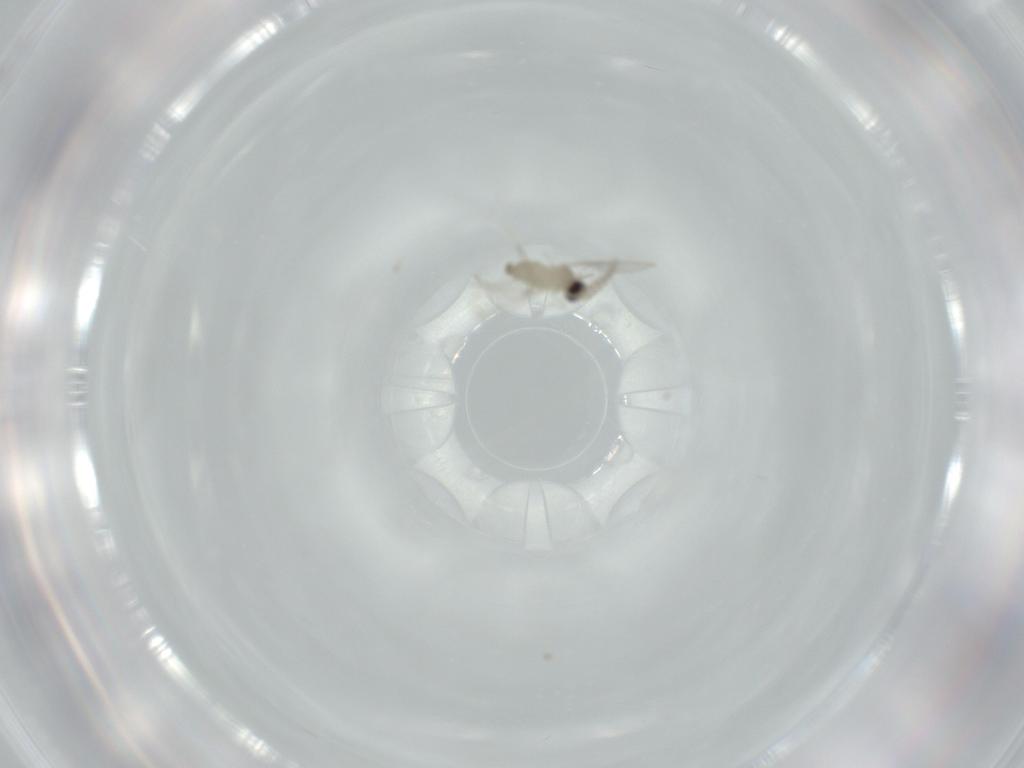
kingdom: Animalia
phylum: Arthropoda
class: Insecta
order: Diptera
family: Cecidomyiidae
